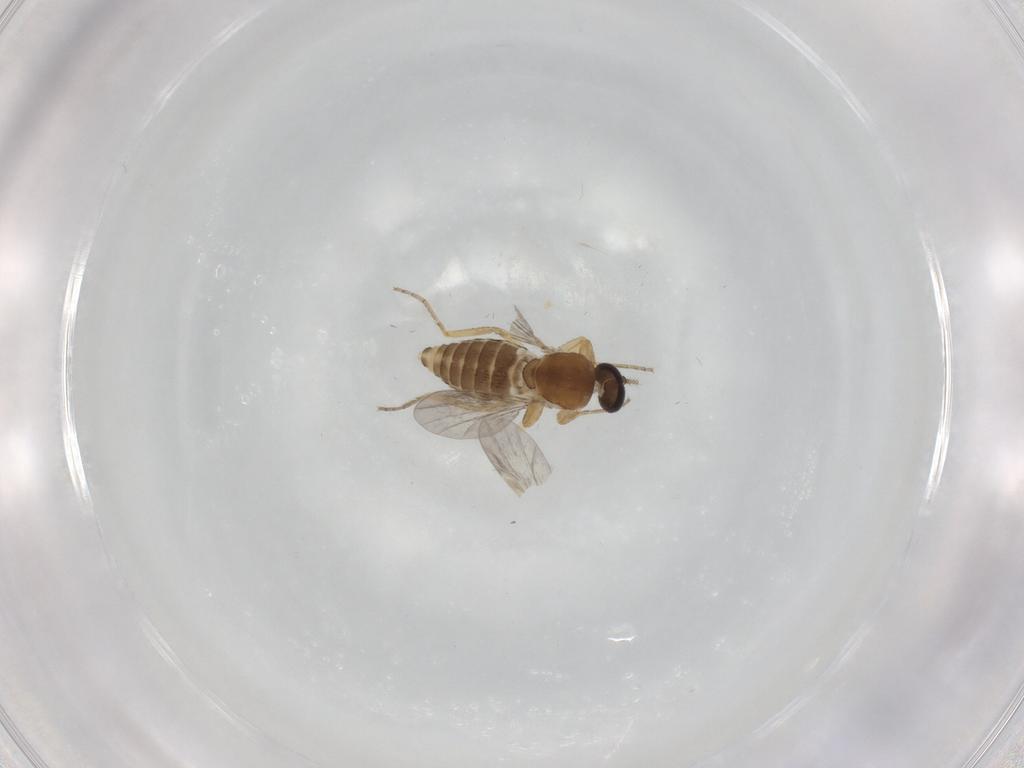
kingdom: Animalia
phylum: Arthropoda
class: Insecta
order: Diptera
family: Ceratopogonidae
